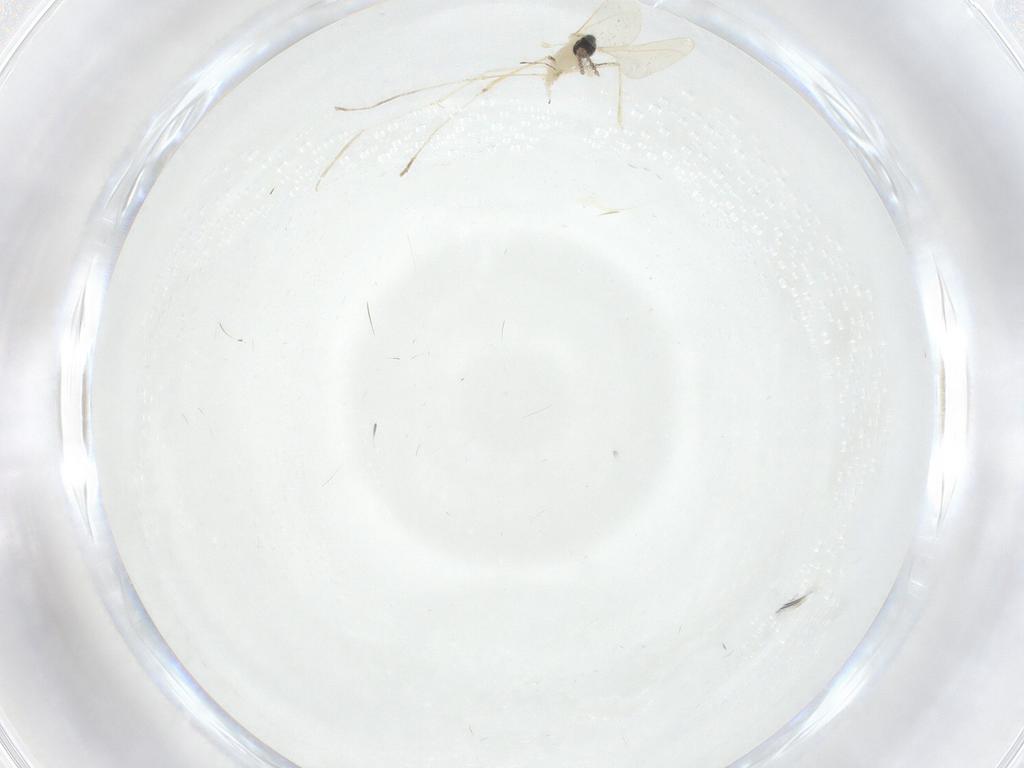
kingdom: Animalia
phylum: Arthropoda
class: Insecta
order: Diptera
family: Cecidomyiidae
